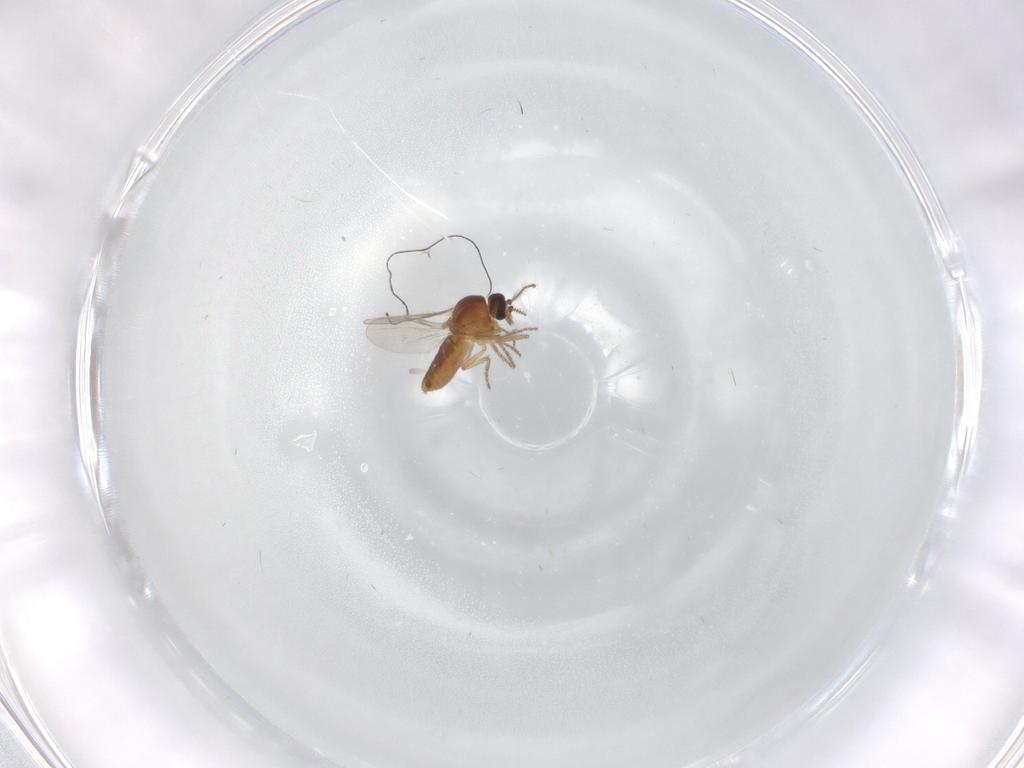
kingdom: Animalia
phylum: Arthropoda
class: Insecta
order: Diptera
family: Ceratopogonidae
